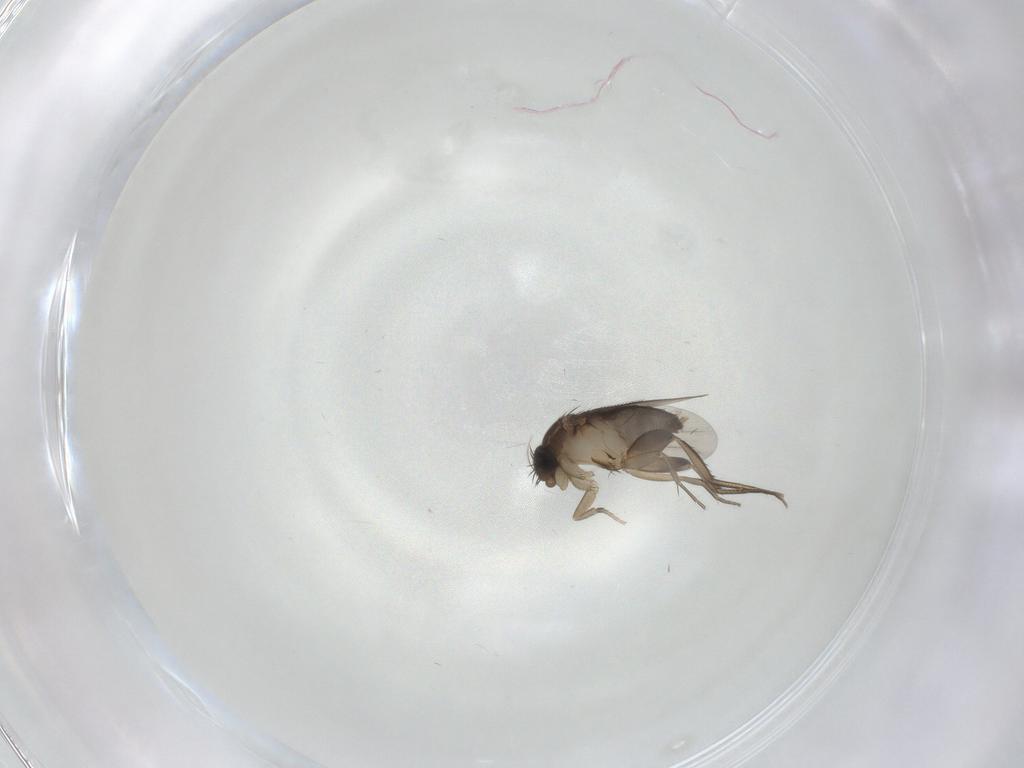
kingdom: Animalia
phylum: Arthropoda
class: Insecta
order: Diptera
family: Phoridae
